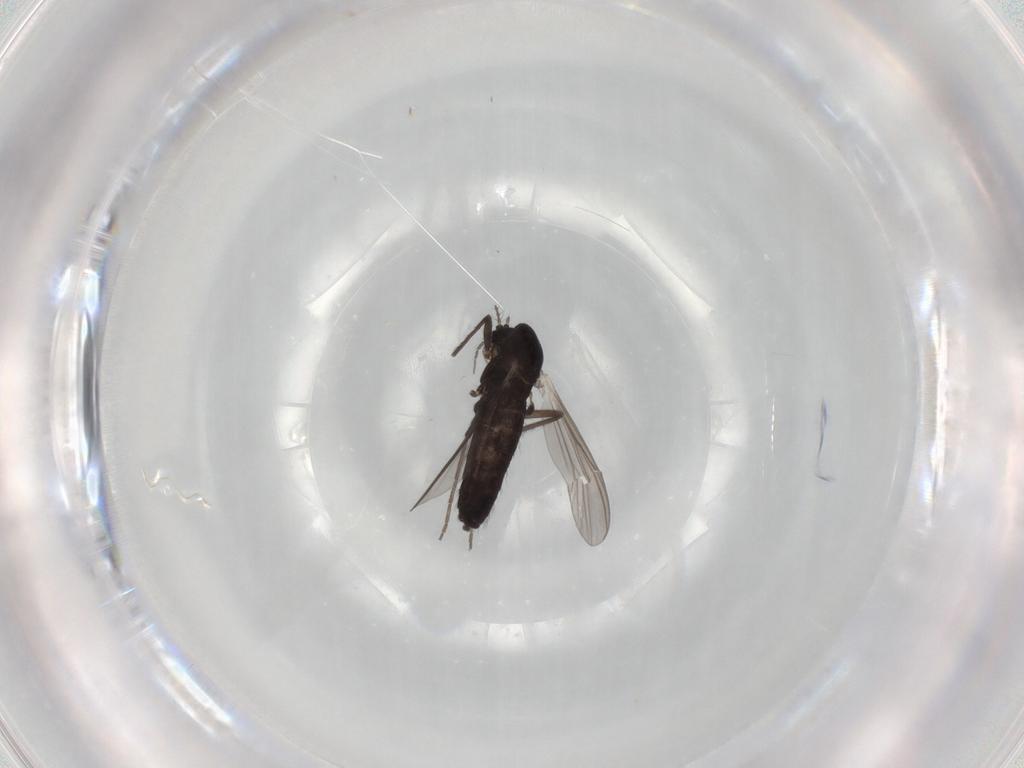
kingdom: Animalia
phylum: Arthropoda
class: Insecta
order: Diptera
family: Chironomidae
